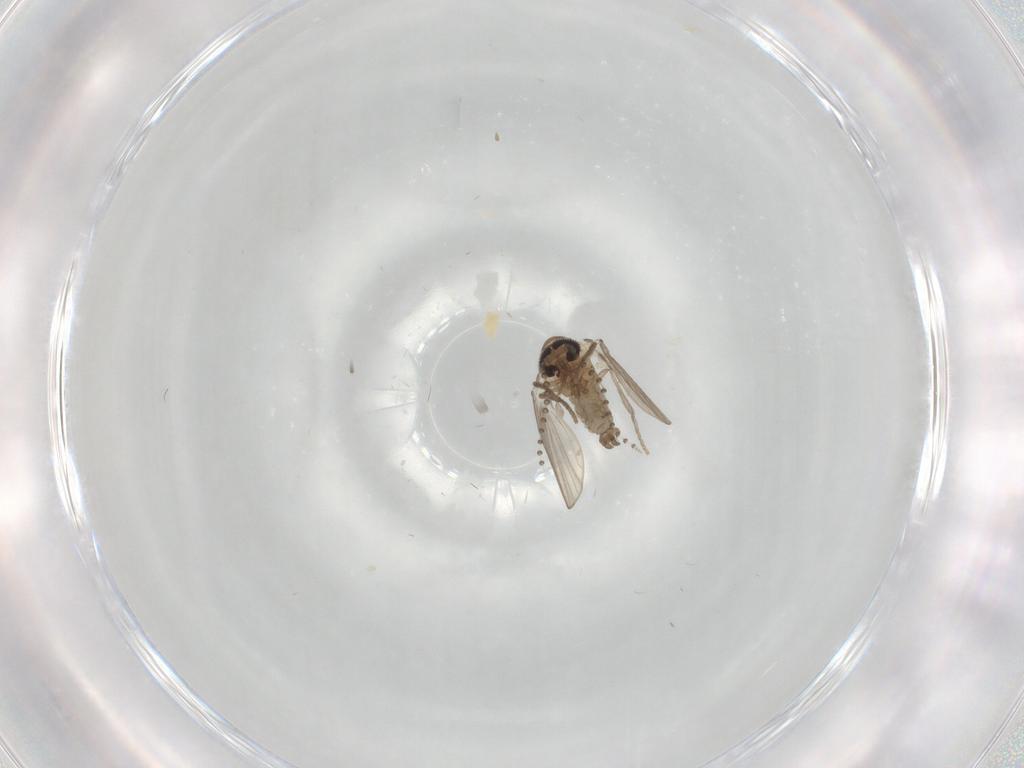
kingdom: Animalia
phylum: Arthropoda
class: Insecta
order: Diptera
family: Psychodidae
